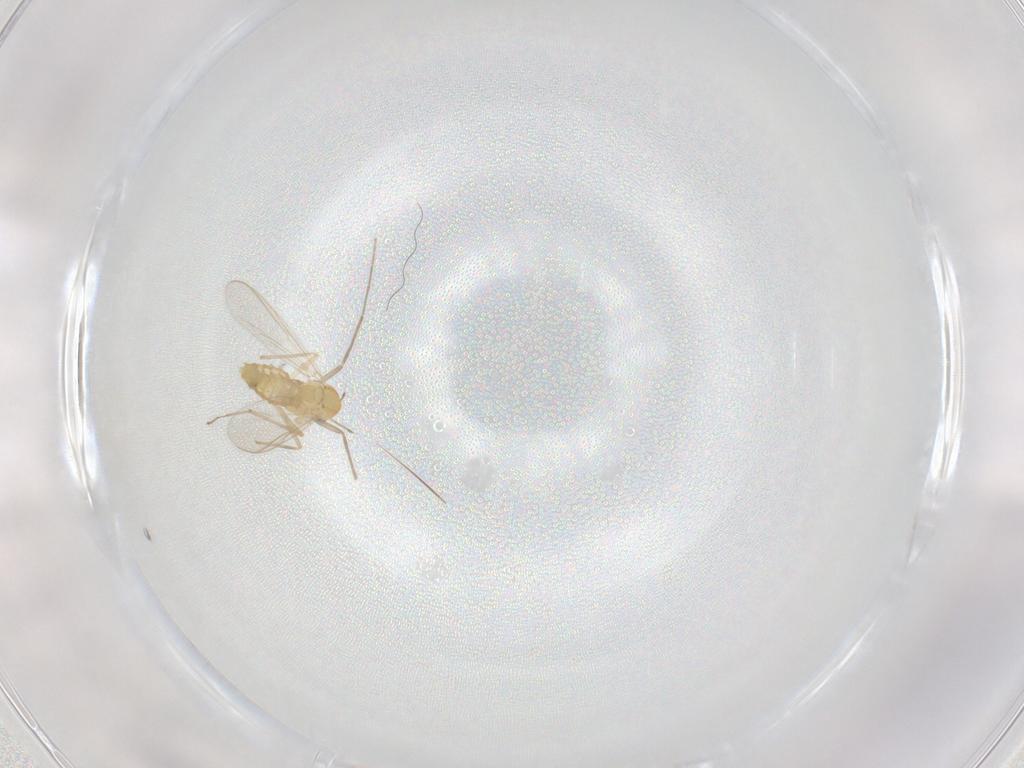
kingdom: Animalia
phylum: Arthropoda
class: Insecta
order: Diptera
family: Chironomidae
